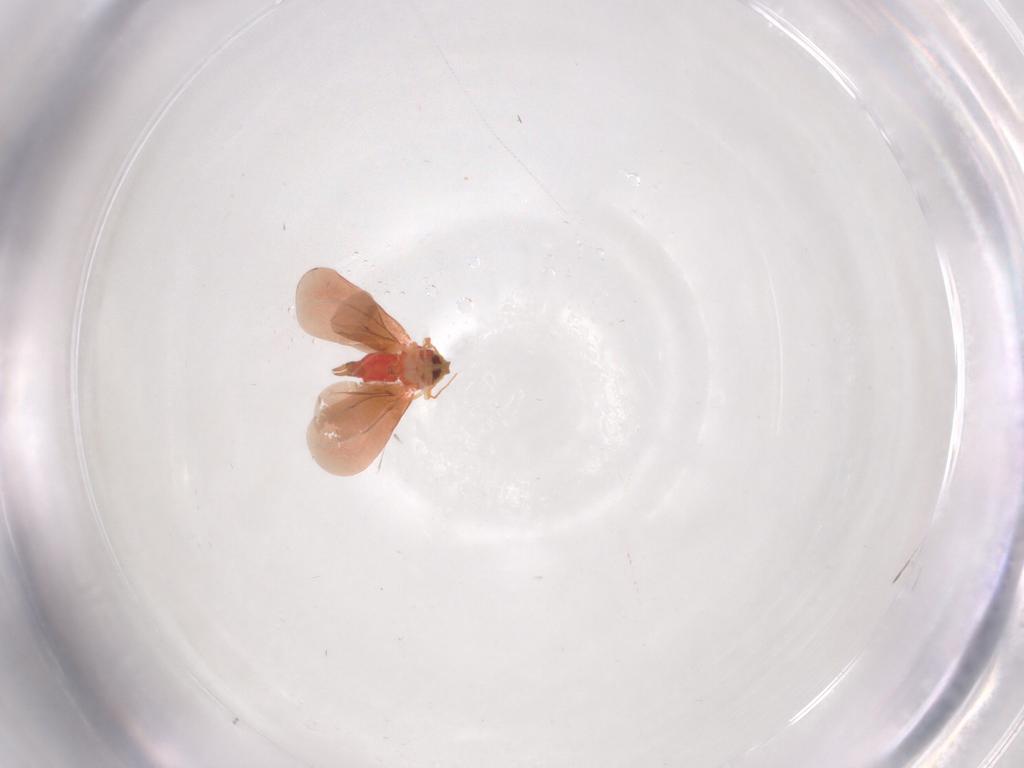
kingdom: Animalia
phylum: Arthropoda
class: Insecta
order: Hemiptera
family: Aleyrodidae
